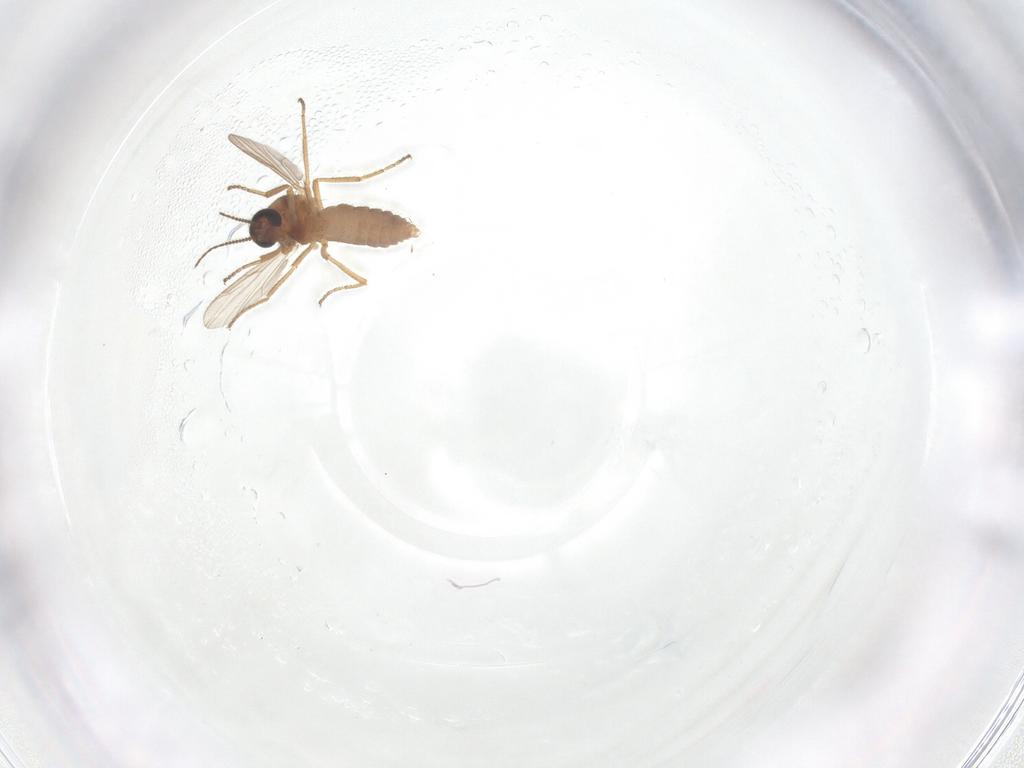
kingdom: Animalia
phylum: Arthropoda
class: Insecta
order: Diptera
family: Ceratopogonidae
